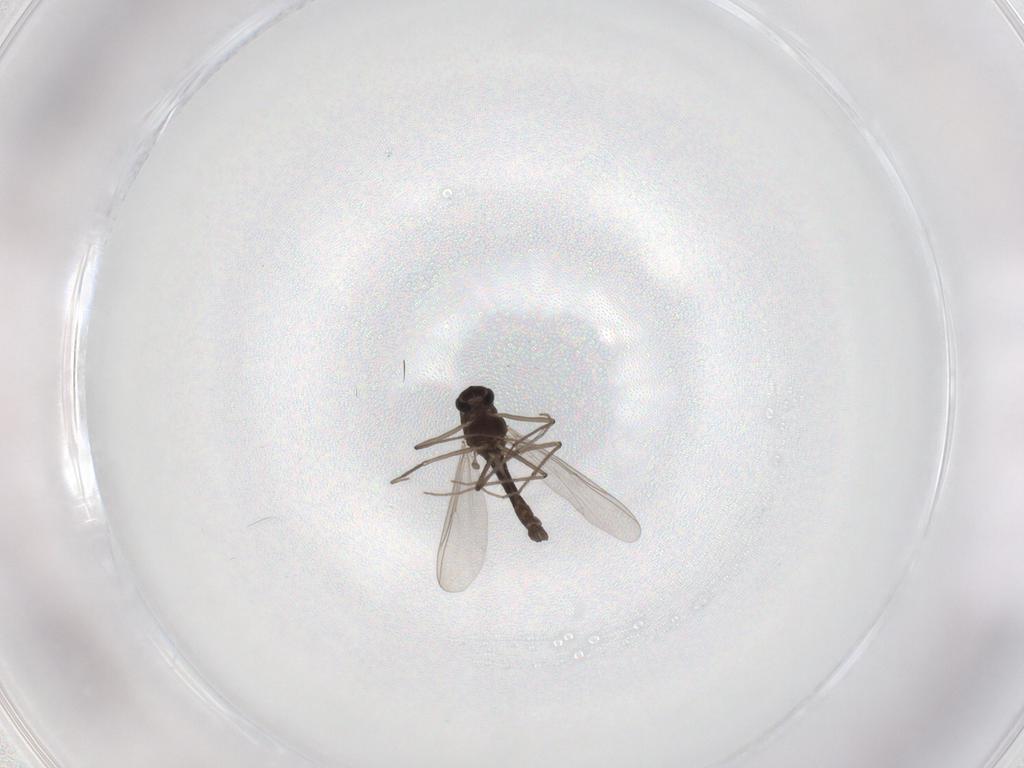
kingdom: Animalia
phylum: Arthropoda
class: Insecta
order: Diptera
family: Chironomidae
